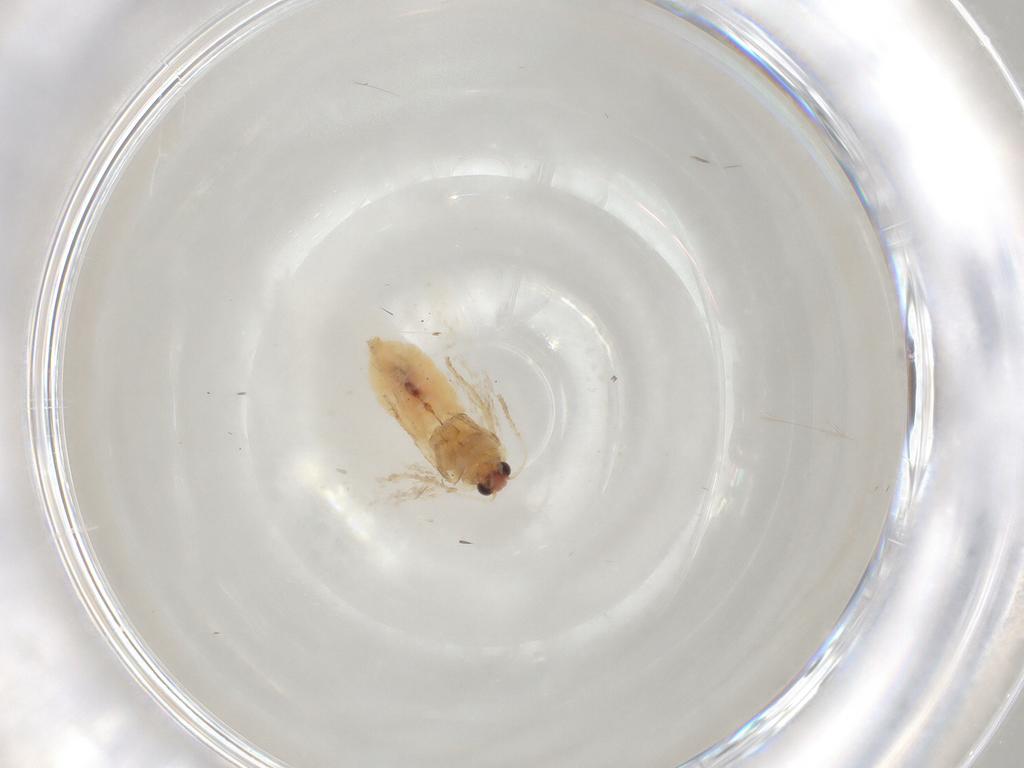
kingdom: Animalia
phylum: Arthropoda
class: Insecta
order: Lepidoptera
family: Nepticulidae
